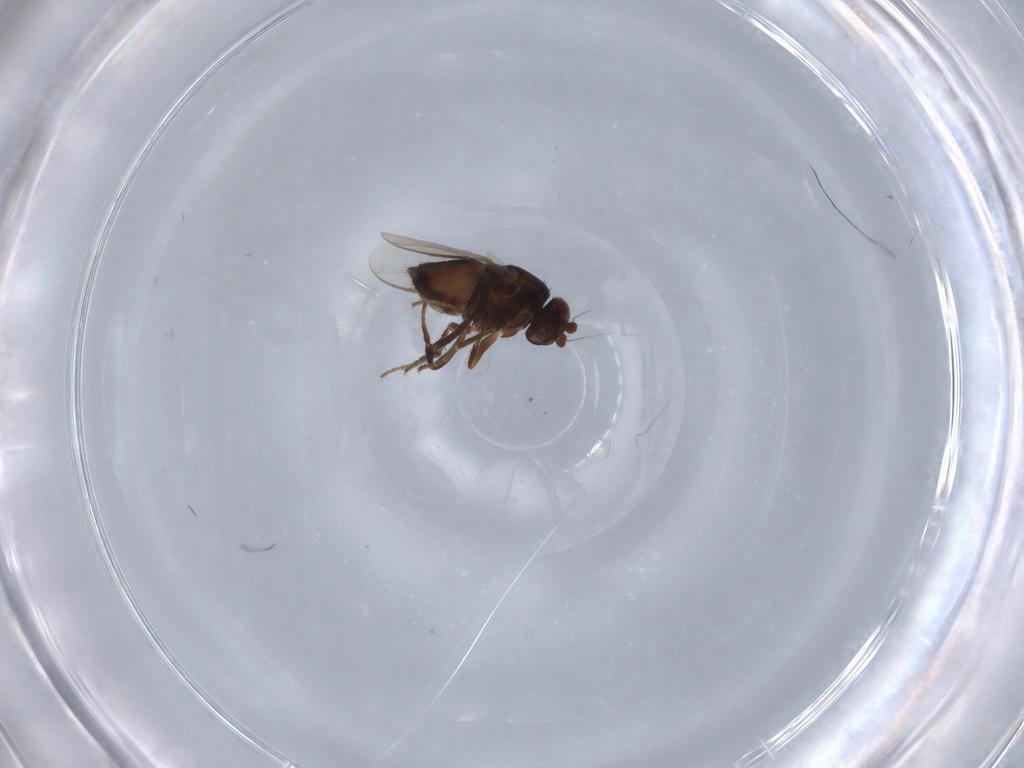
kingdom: Animalia
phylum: Arthropoda
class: Insecta
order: Diptera
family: Sphaeroceridae
